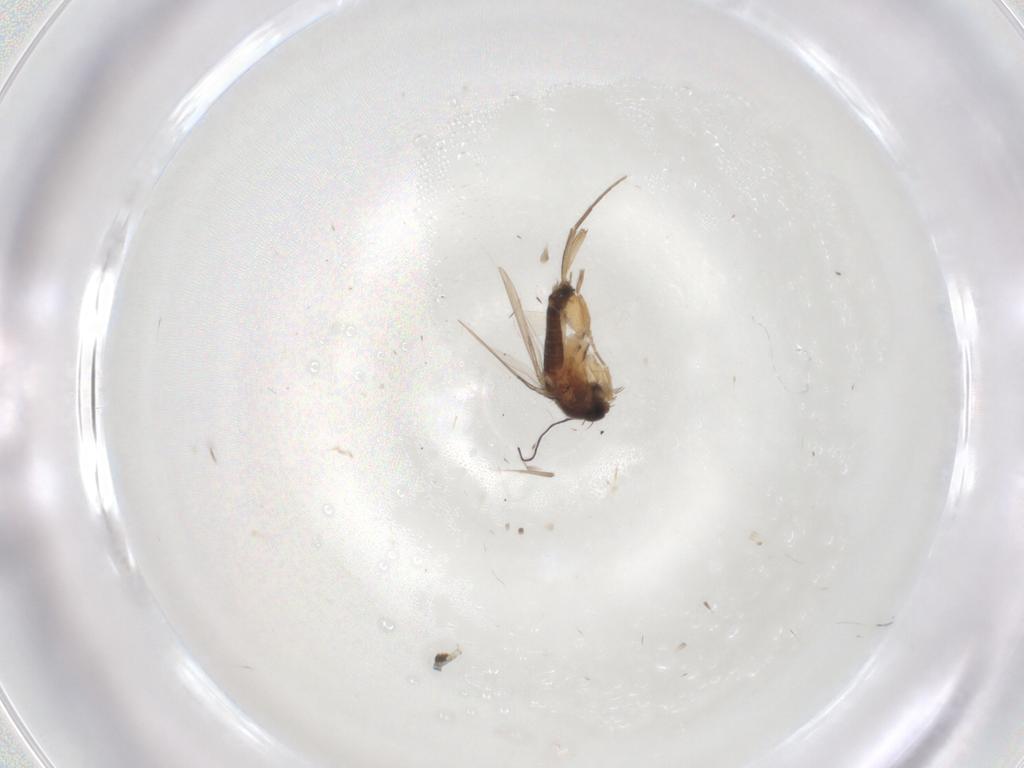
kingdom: Animalia
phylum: Arthropoda
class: Insecta
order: Diptera
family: Phoridae
